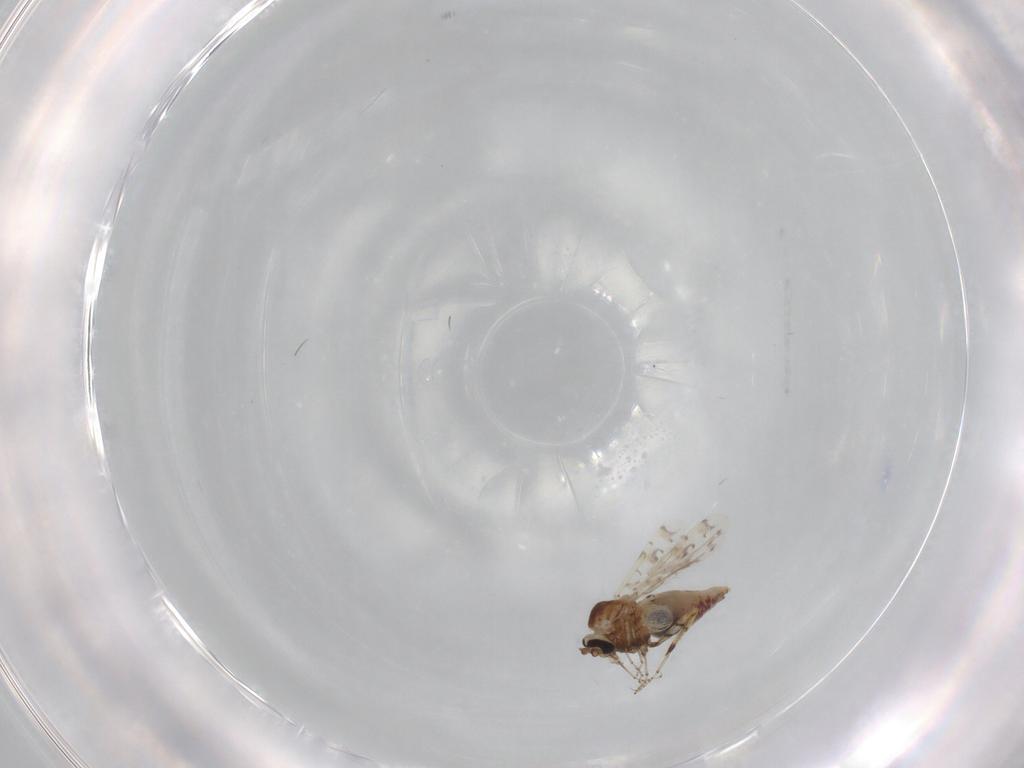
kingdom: Animalia
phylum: Arthropoda
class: Insecta
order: Diptera
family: Ceratopogonidae
